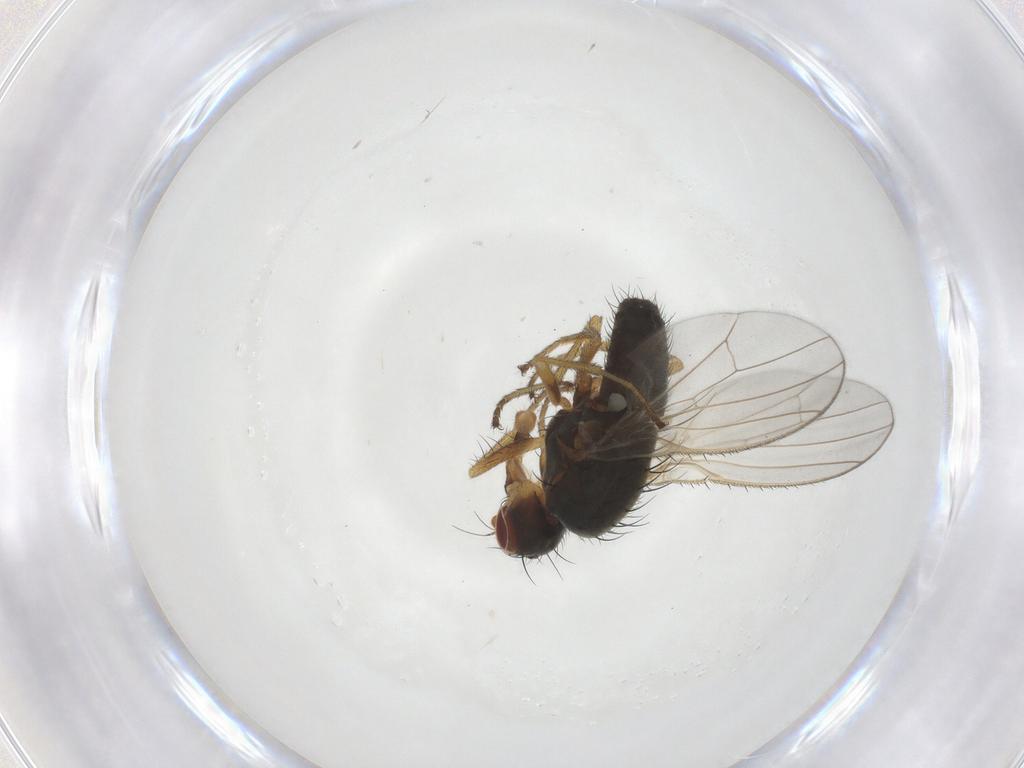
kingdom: Animalia
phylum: Arthropoda
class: Insecta
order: Diptera
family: Heleomyzidae
